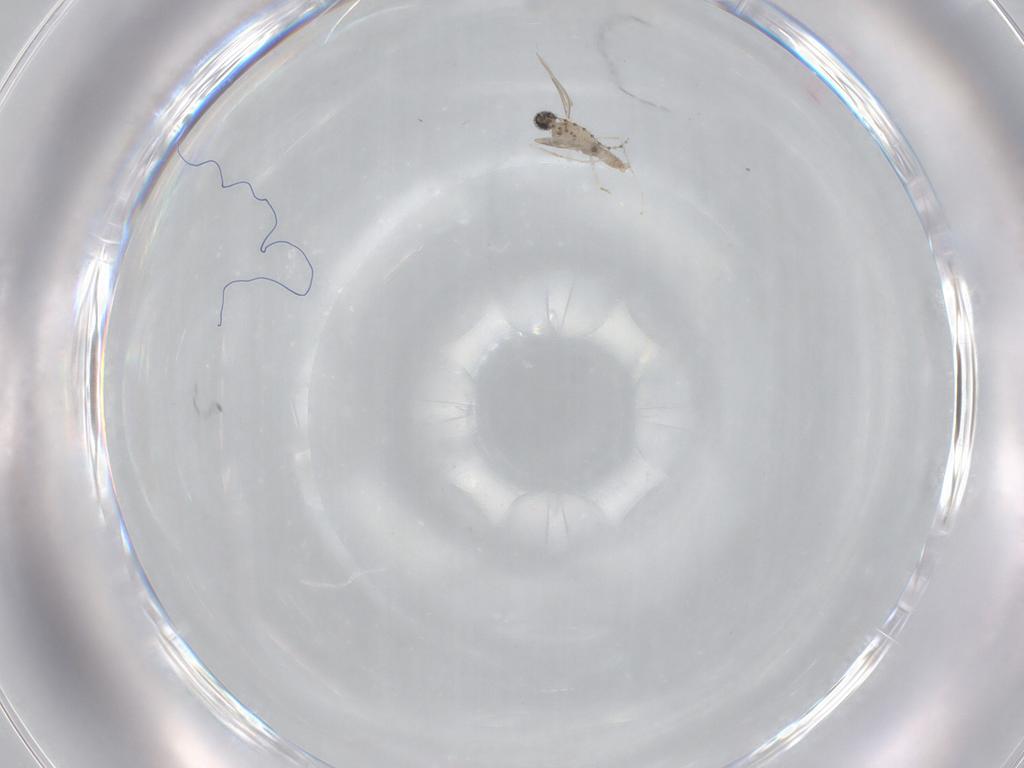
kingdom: Animalia
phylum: Arthropoda
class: Insecta
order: Diptera
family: Cecidomyiidae
